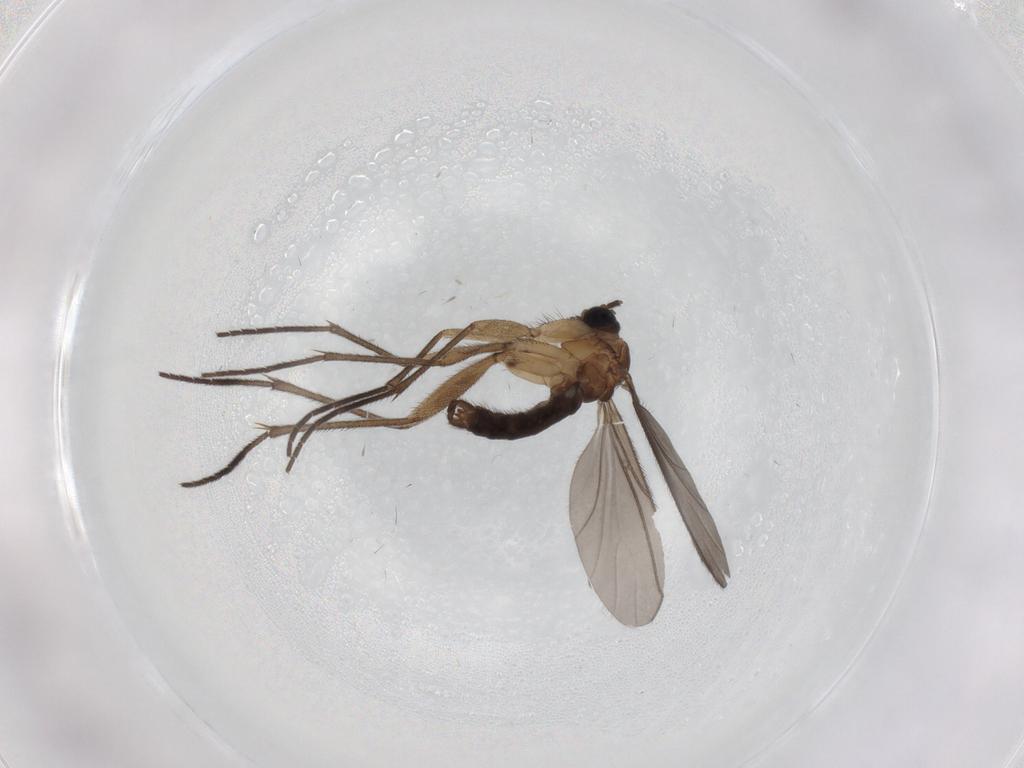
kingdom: Animalia
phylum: Arthropoda
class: Insecta
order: Diptera
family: Sciaridae
